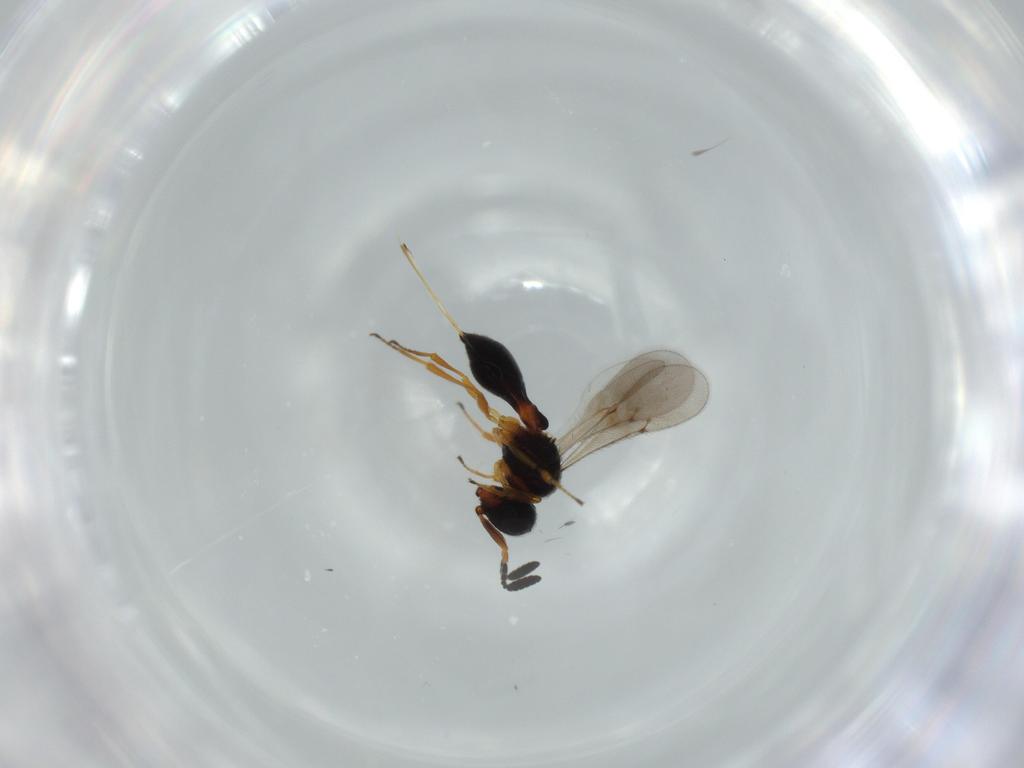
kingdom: Animalia
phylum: Arthropoda
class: Insecta
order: Hymenoptera
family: Scelionidae
